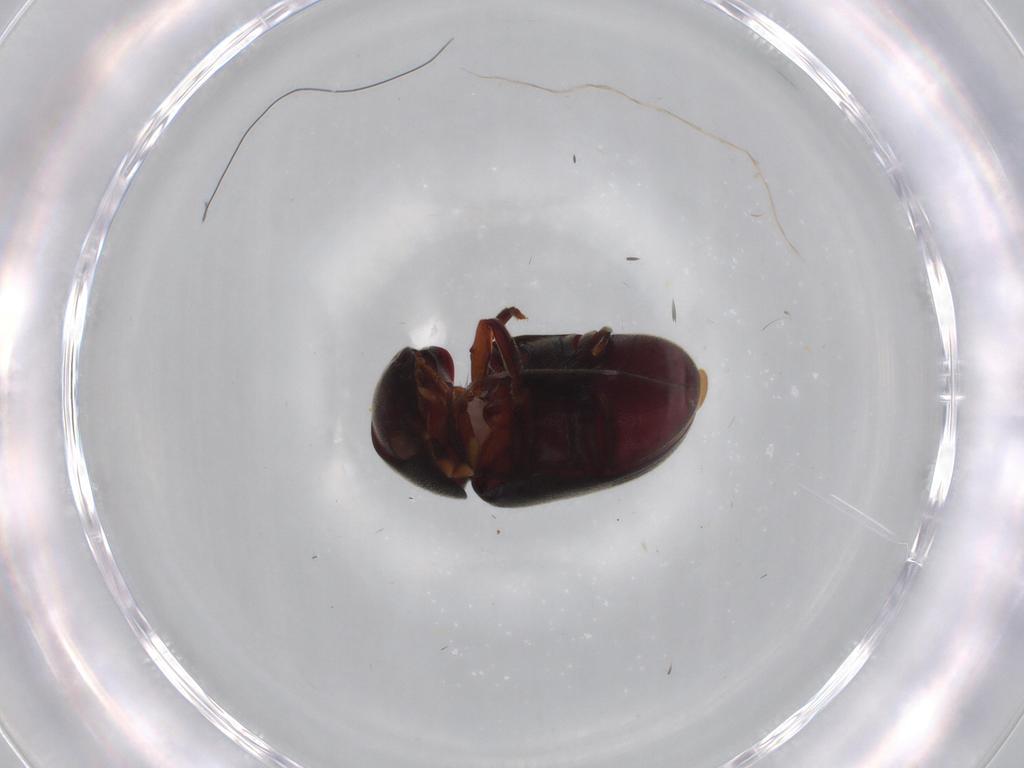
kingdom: Animalia
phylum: Arthropoda
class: Insecta
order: Coleoptera
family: Ptinidae
